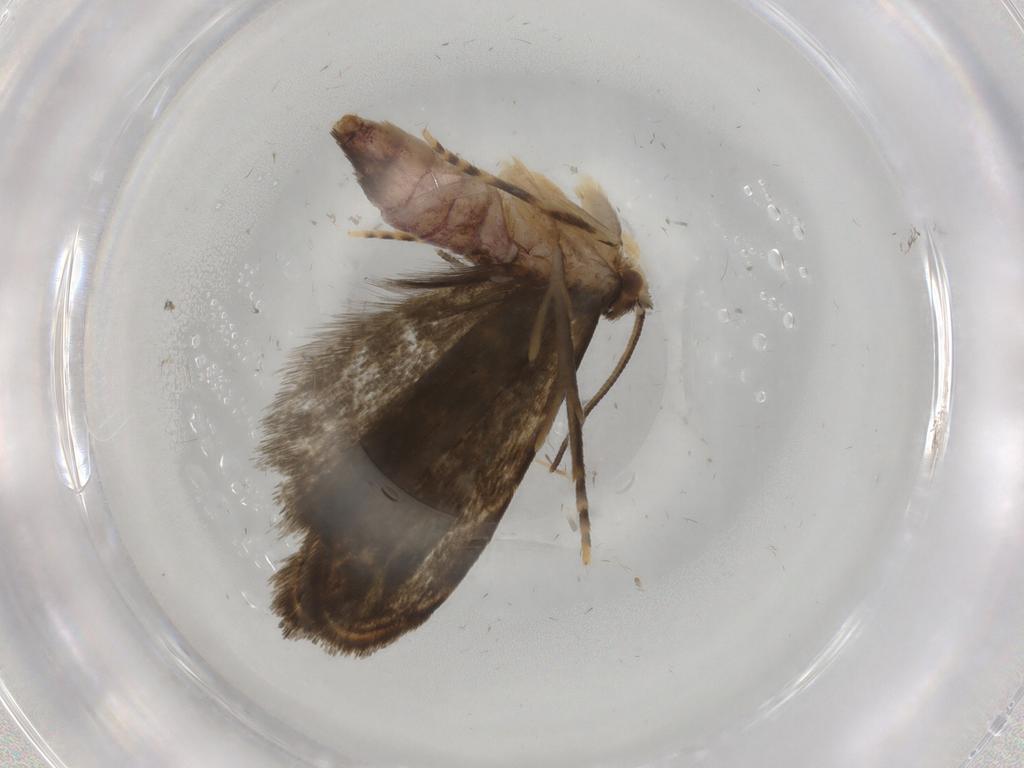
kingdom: Animalia
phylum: Arthropoda
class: Insecta
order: Lepidoptera
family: Dryadaulidae
